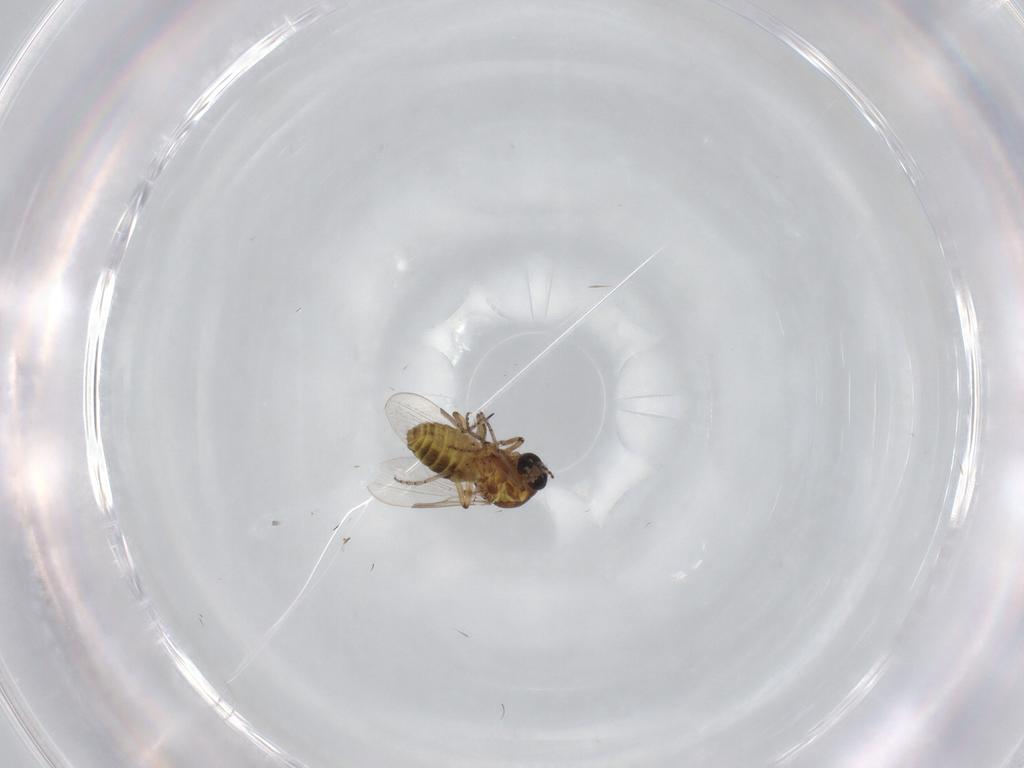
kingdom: Animalia
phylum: Arthropoda
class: Insecta
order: Diptera
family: Ceratopogonidae
